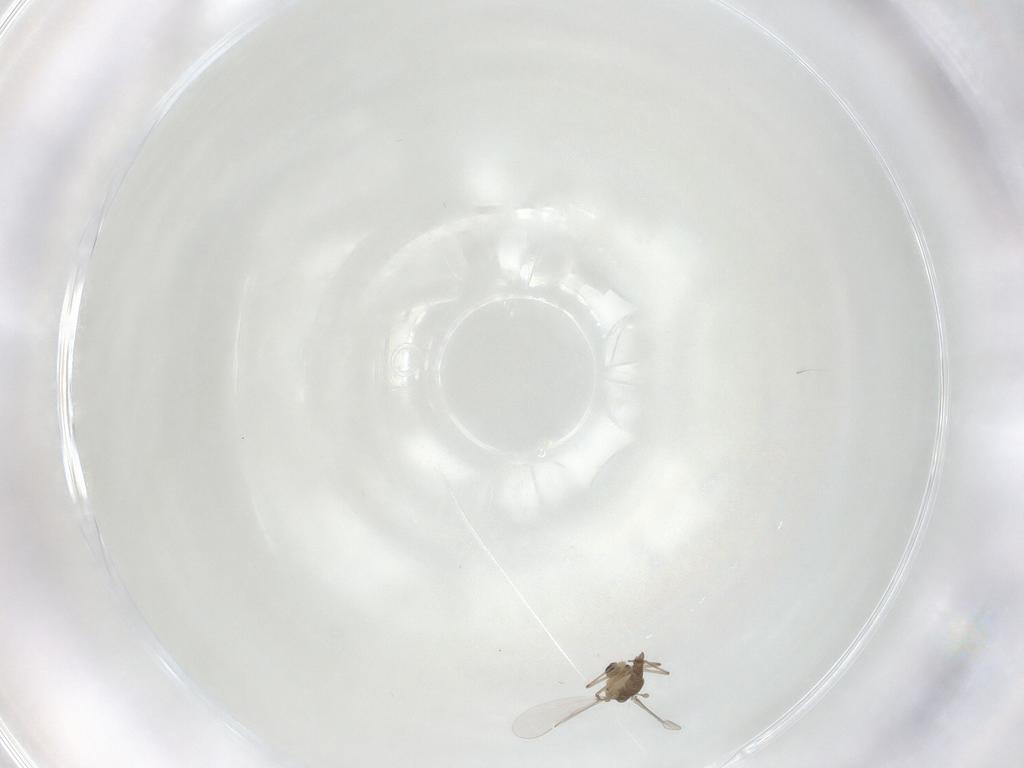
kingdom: Animalia
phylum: Arthropoda
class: Insecta
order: Diptera
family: Chironomidae
